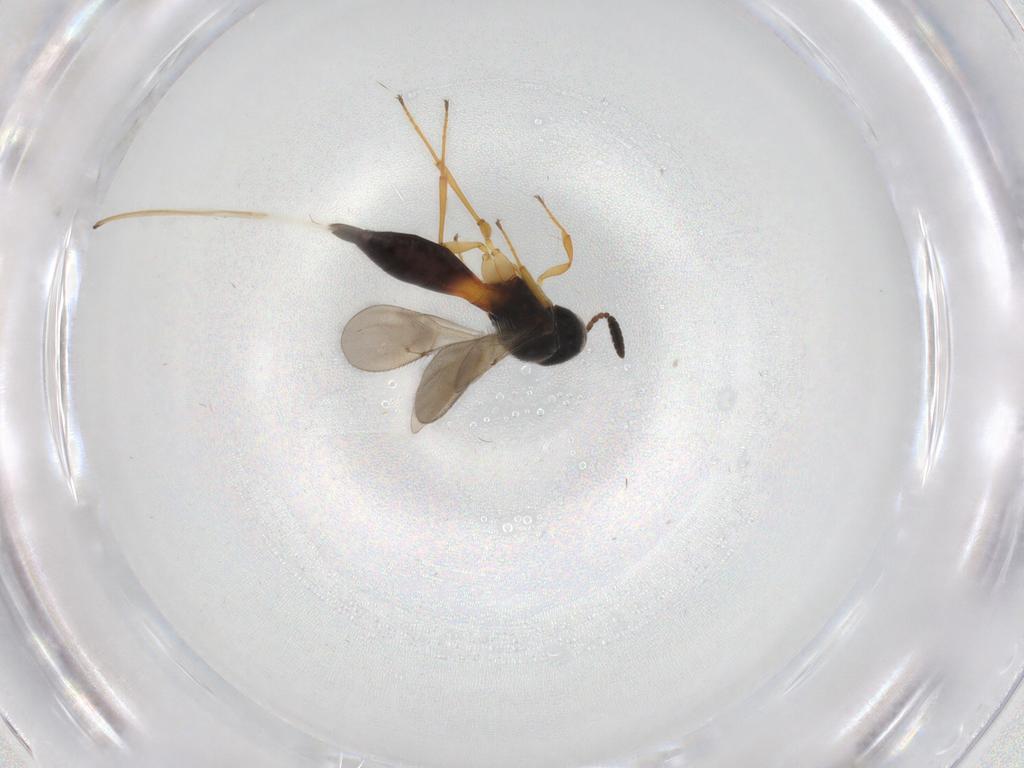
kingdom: Animalia
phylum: Arthropoda
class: Insecta
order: Hymenoptera
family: Scelionidae
